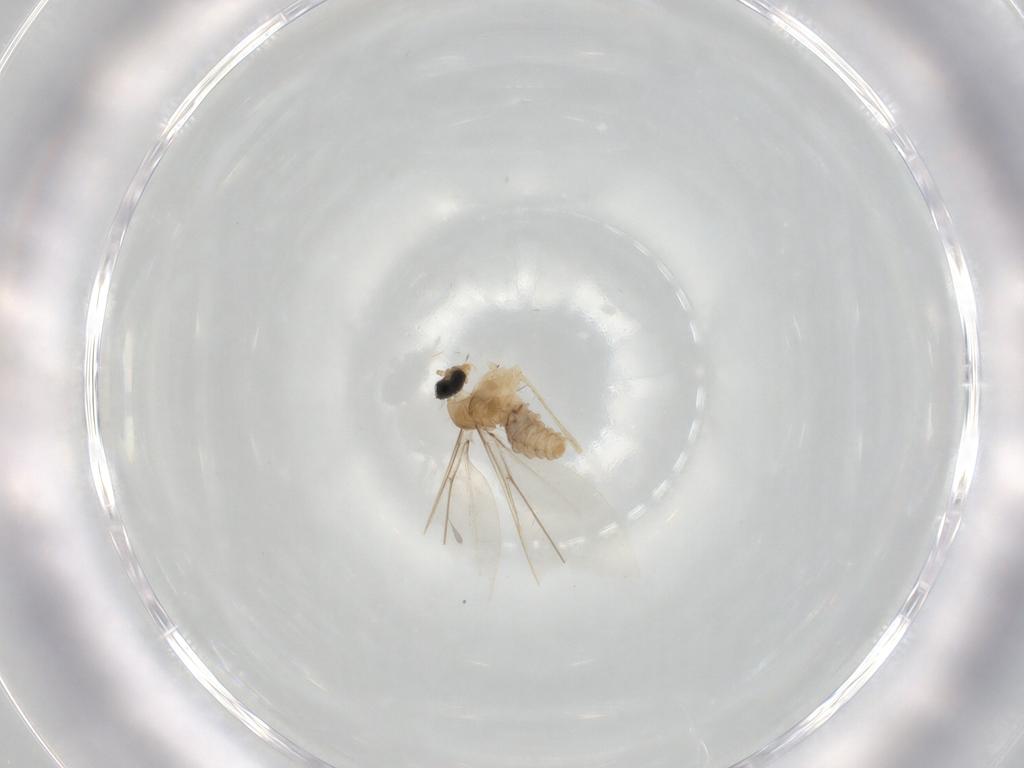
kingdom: Animalia
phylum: Arthropoda
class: Insecta
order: Diptera
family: Cecidomyiidae
